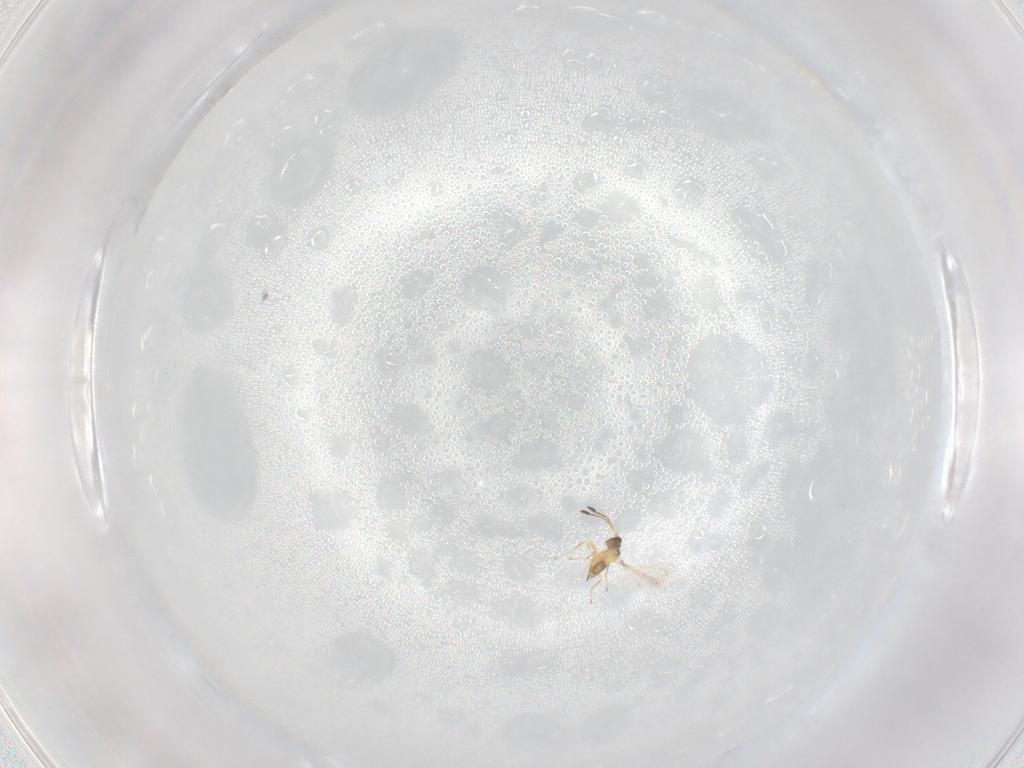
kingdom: Animalia
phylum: Arthropoda
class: Insecta
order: Hymenoptera
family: Mymaridae
